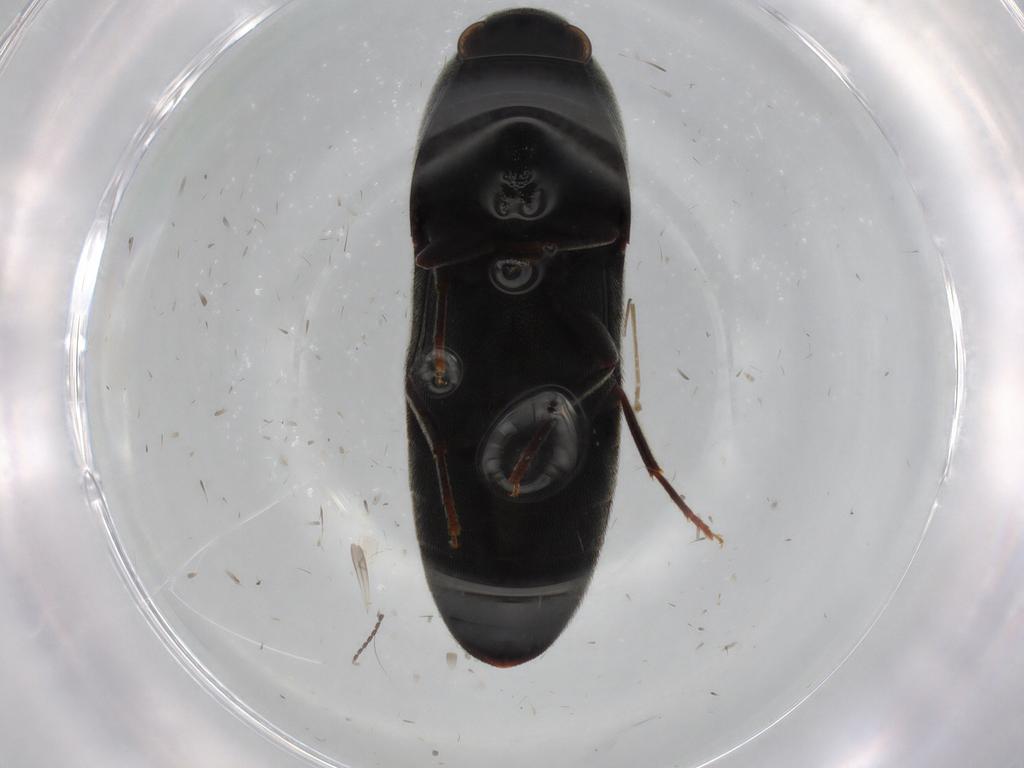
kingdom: Animalia
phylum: Arthropoda
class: Insecta
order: Coleoptera
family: Eucnemidae
